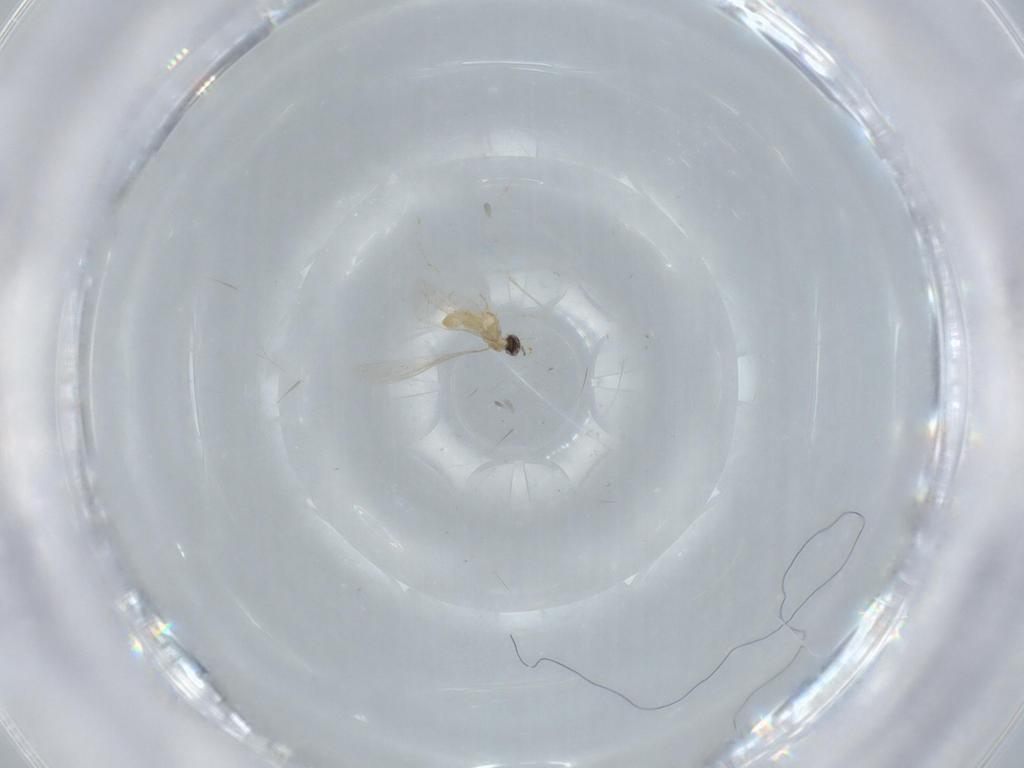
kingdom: Animalia
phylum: Arthropoda
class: Insecta
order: Diptera
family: Dolichopodidae
